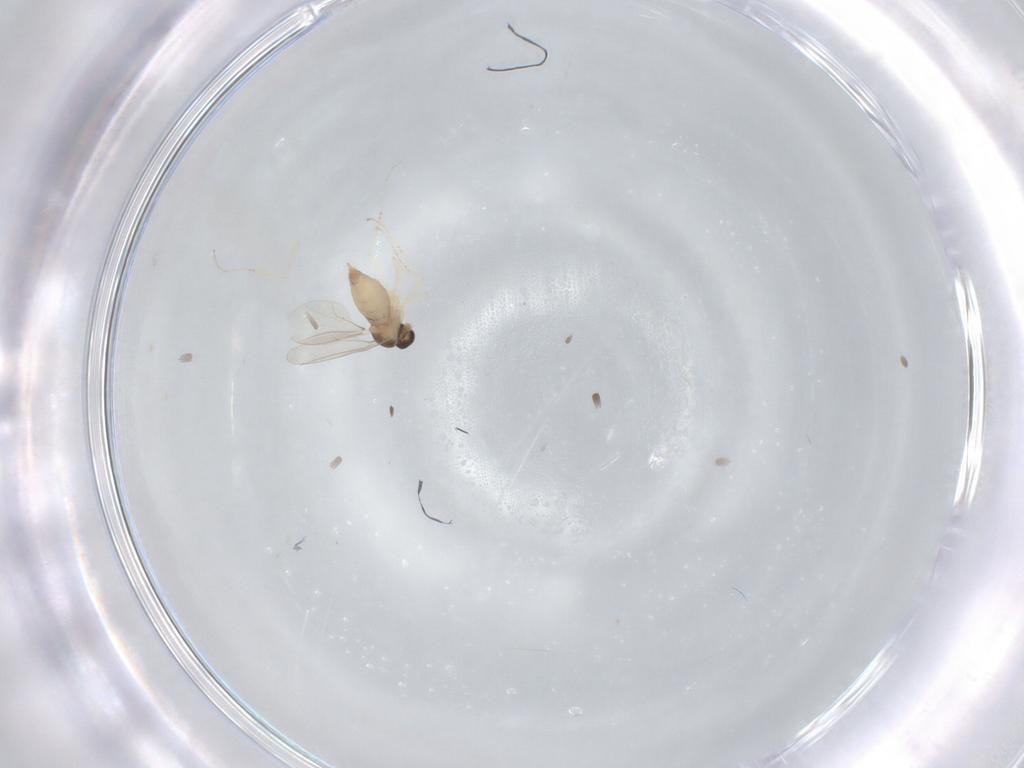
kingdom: Animalia
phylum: Arthropoda
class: Insecta
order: Diptera
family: Cecidomyiidae
